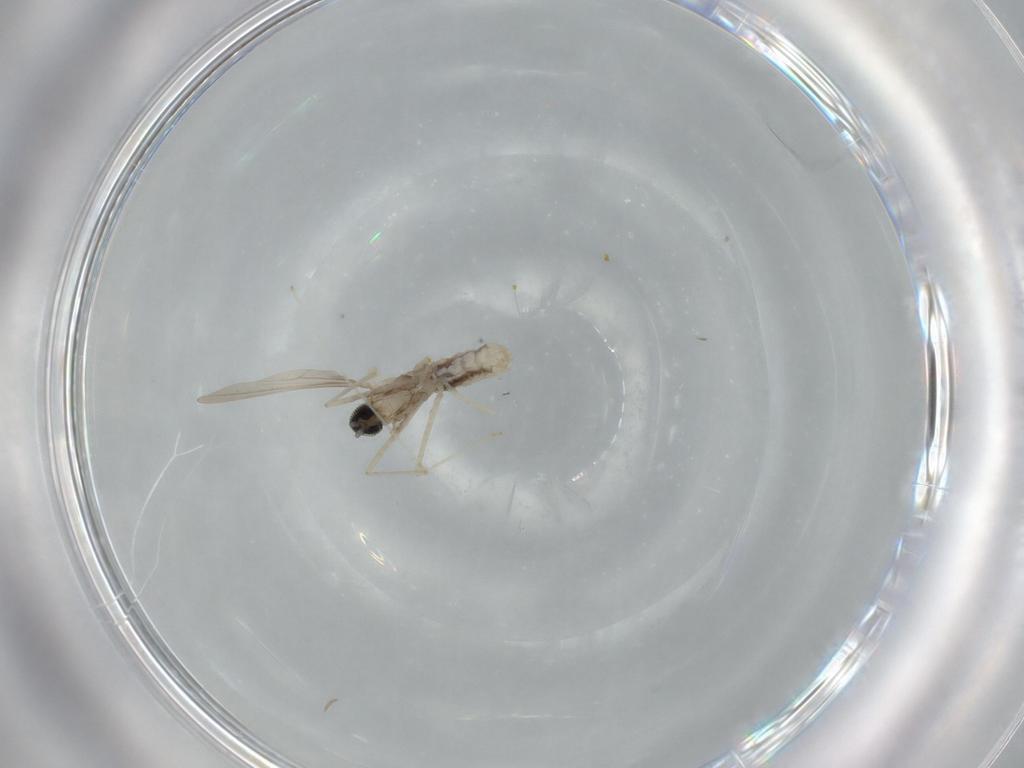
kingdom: Animalia
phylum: Arthropoda
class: Insecta
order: Diptera
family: Cecidomyiidae
